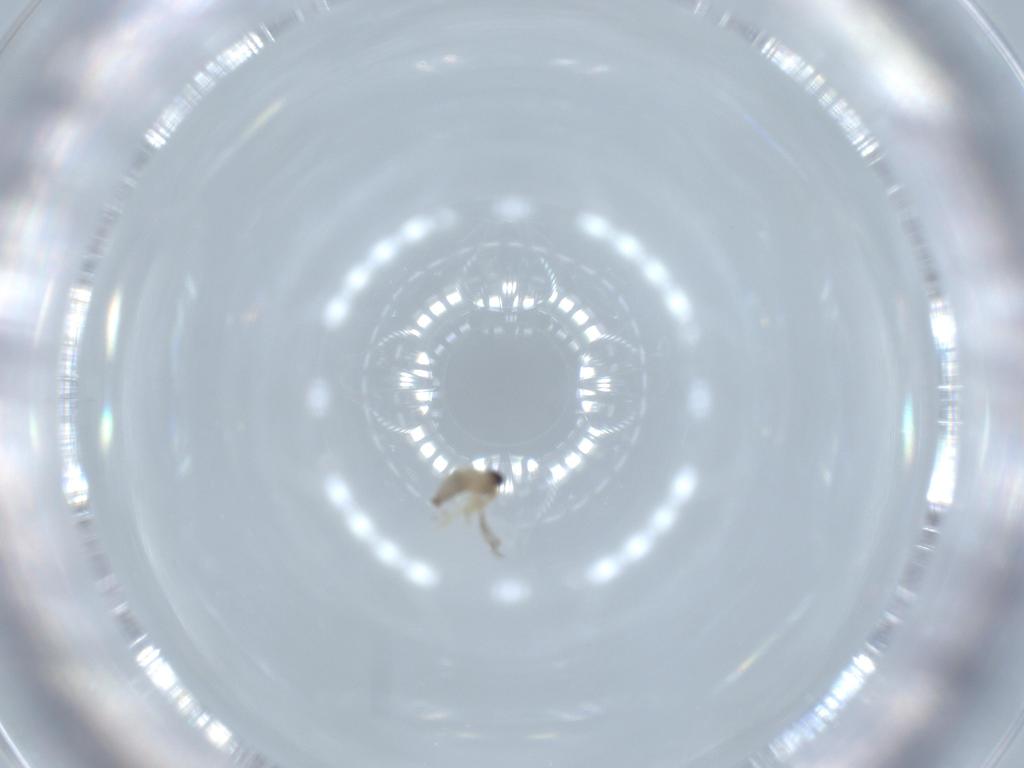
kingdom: Animalia
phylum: Arthropoda
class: Insecta
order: Diptera
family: Cecidomyiidae
